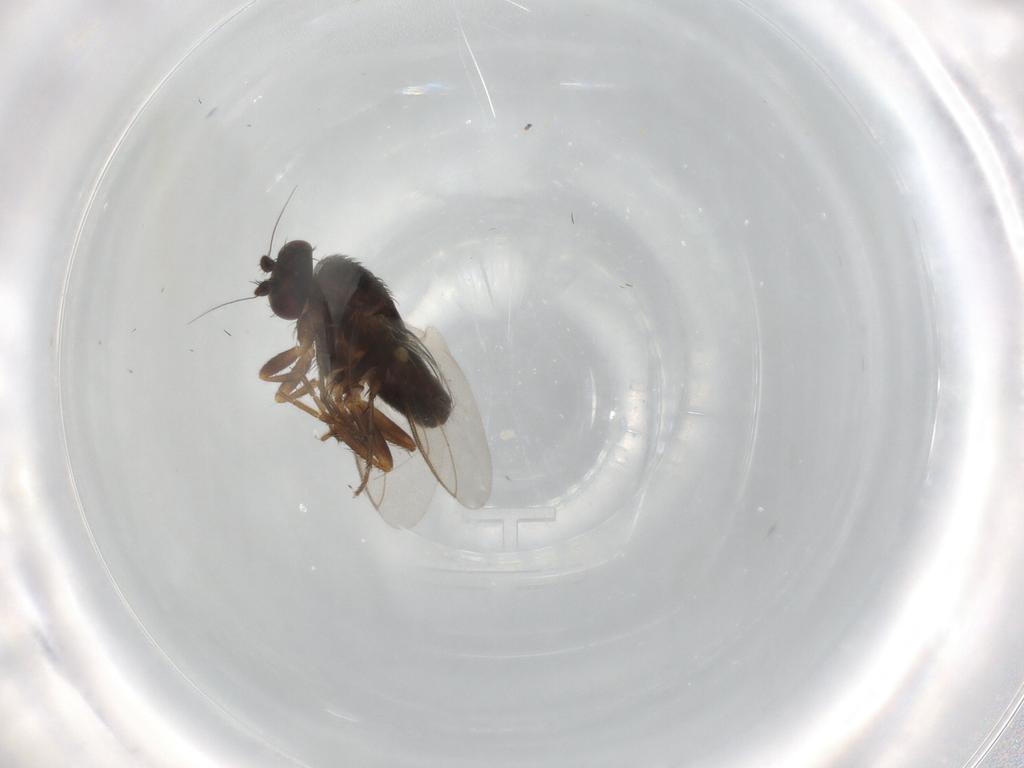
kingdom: Animalia
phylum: Arthropoda
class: Insecta
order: Diptera
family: Sphaeroceridae
